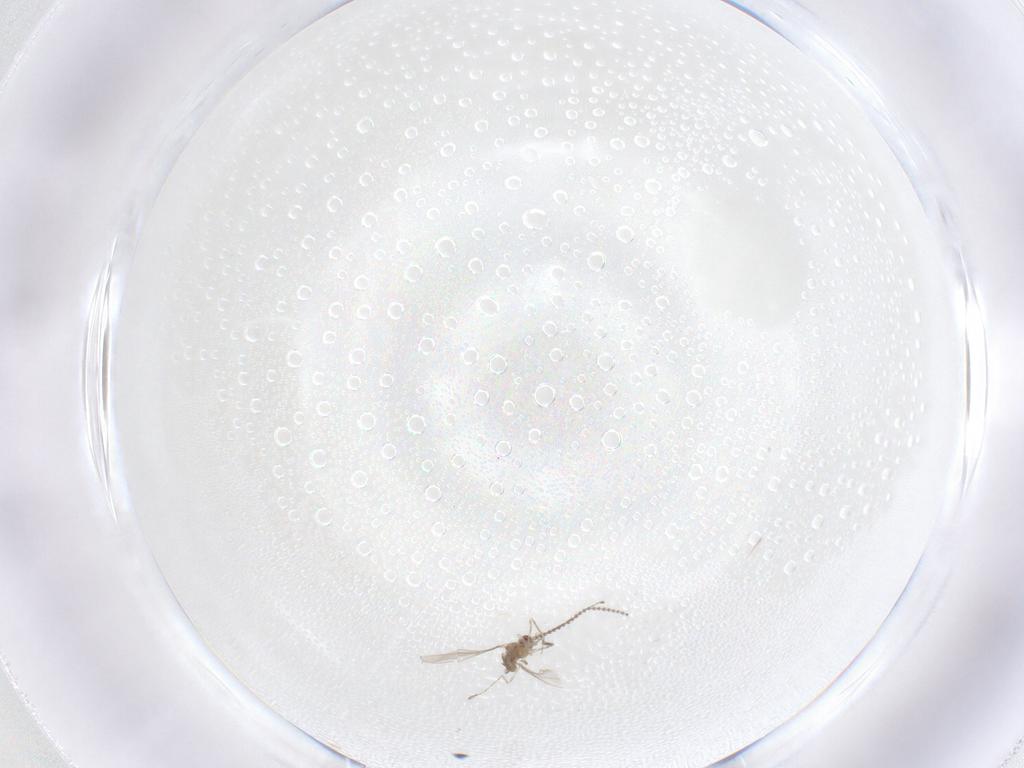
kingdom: Animalia
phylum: Arthropoda
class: Insecta
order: Diptera
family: Cecidomyiidae
